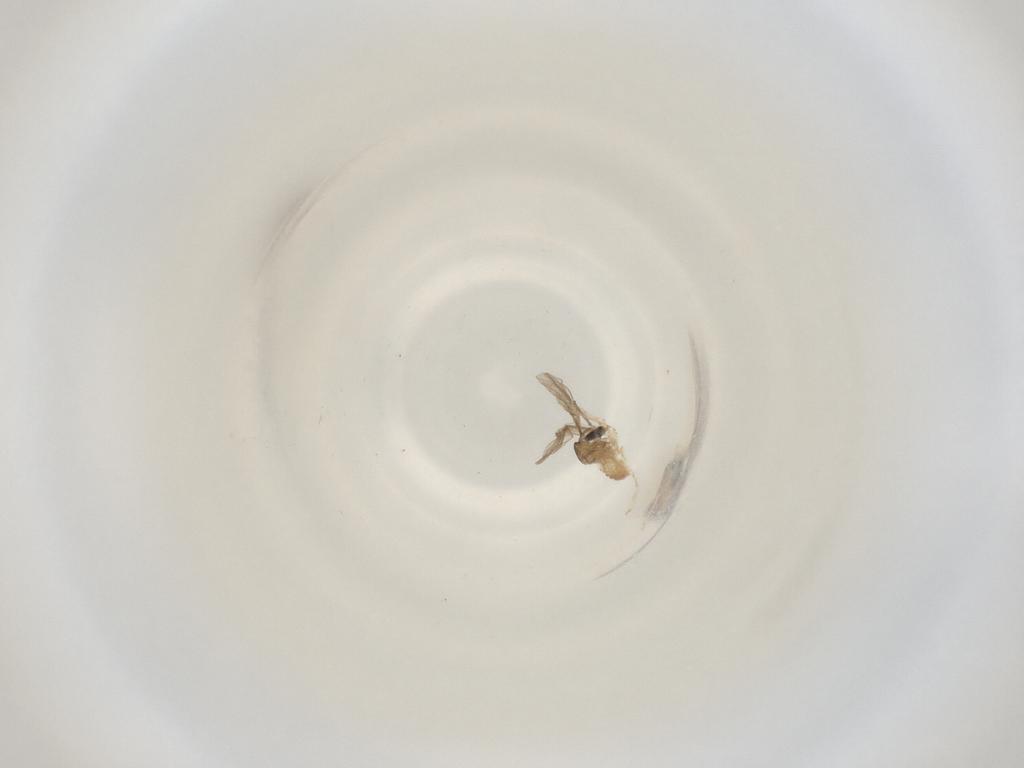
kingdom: Animalia
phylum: Arthropoda
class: Insecta
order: Diptera
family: Cecidomyiidae
